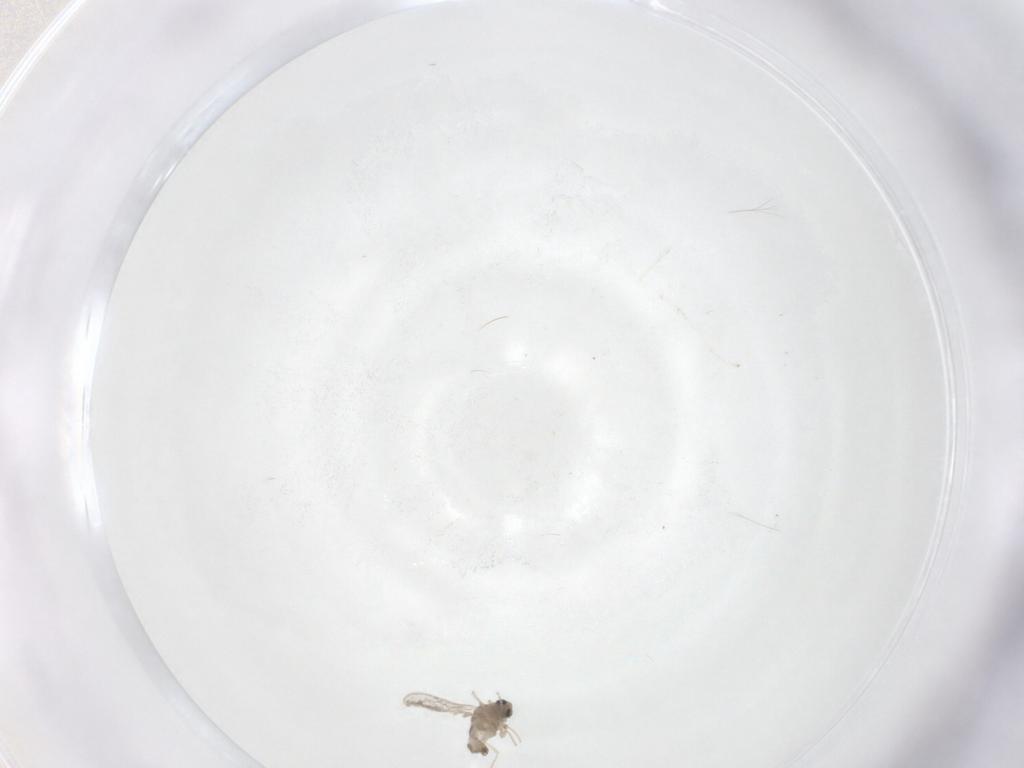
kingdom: Animalia
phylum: Arthropoda
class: Insecta
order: Diptera
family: Cecidomyiidae
